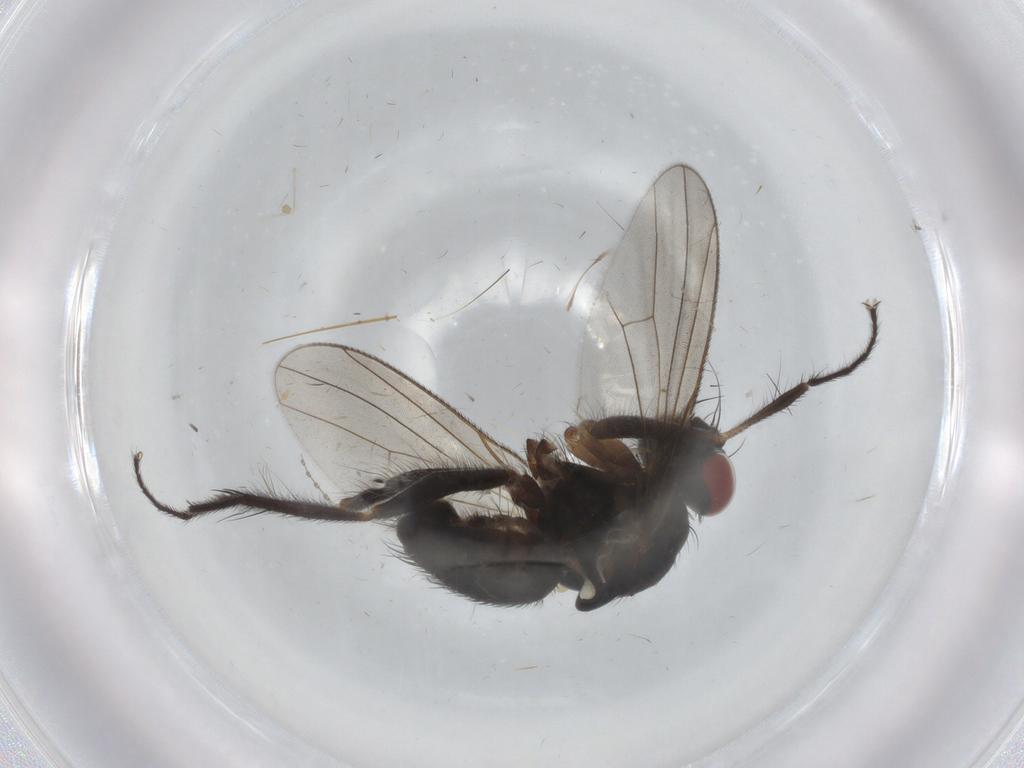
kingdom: Animalia
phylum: Arthropoda
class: Insecta
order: Diptera
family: Muscidae
